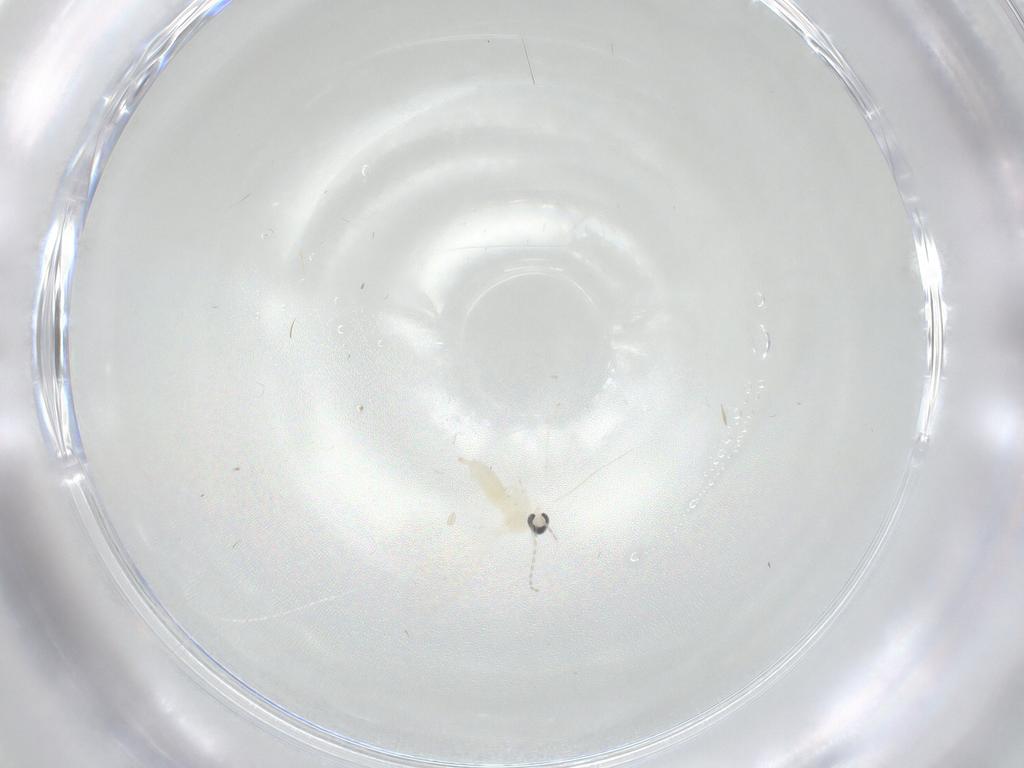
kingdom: Animalia
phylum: Arthropoda
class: Insecta
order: Diptera
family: Cecidomyiidae
